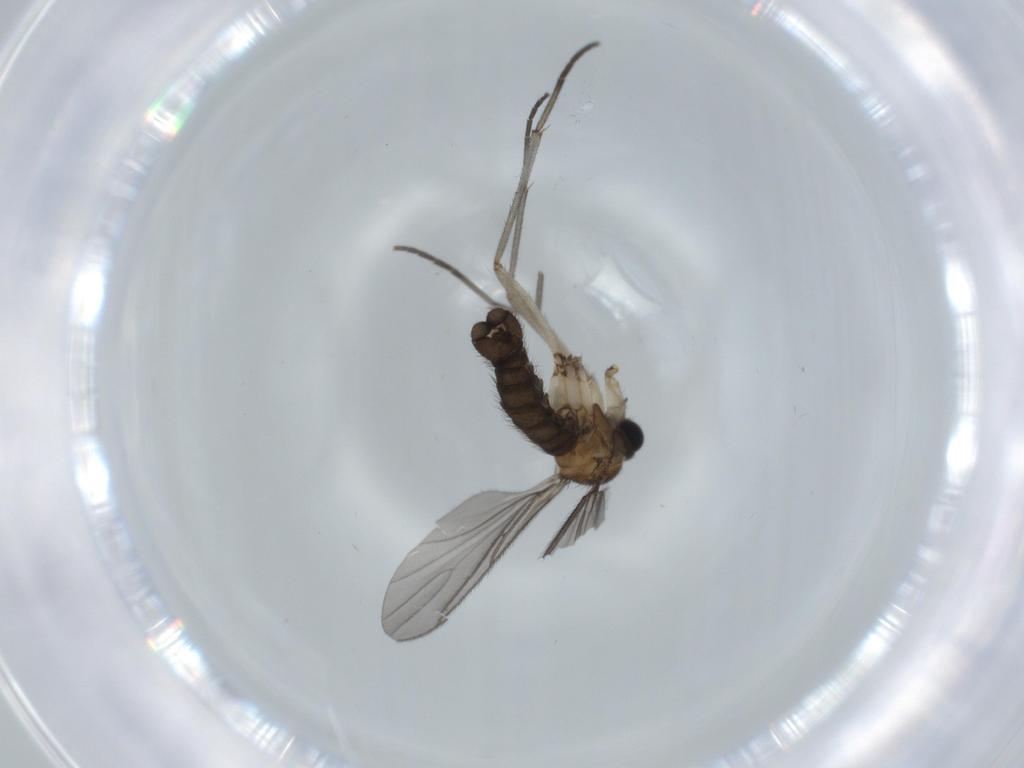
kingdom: Animalia
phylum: Arthropoda
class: Insecta
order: Diptera
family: Sciaridae
